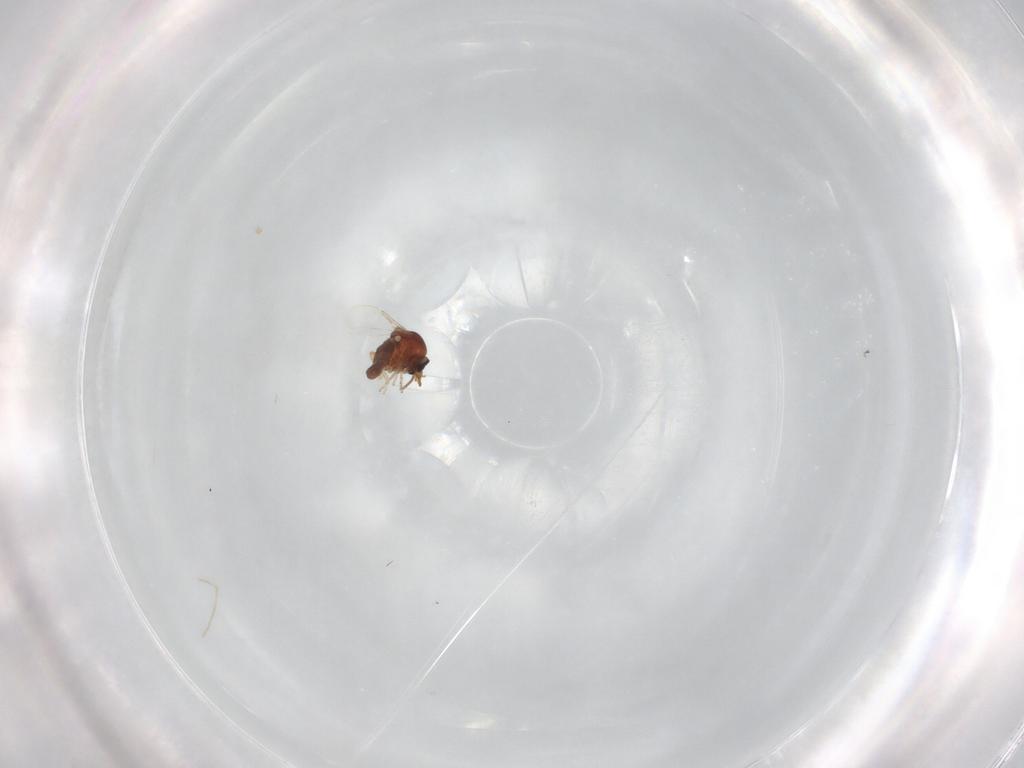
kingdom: Animalia
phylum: Arthropoda
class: Insecta
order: Diptera
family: Ceratopogonidae
